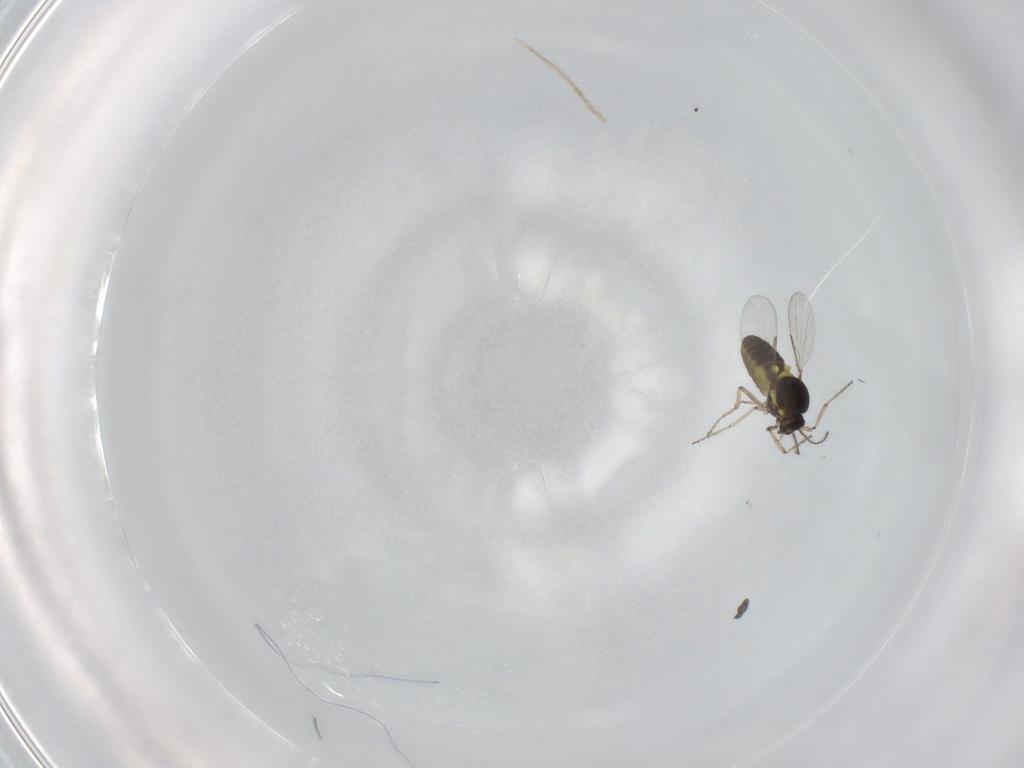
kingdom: Animalia
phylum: Arthropoda
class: Insecta
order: Diptera
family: Ceratopogonidae
